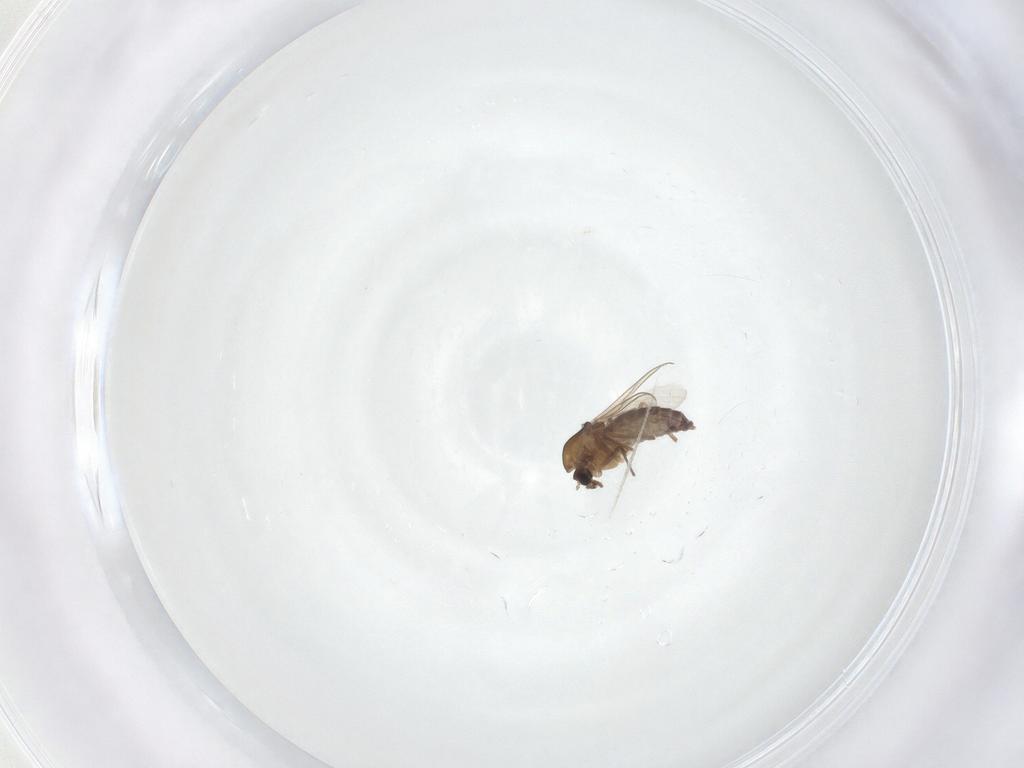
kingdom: Animalia
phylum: Arthropoda
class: Insecta
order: Diptera
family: Chironomidae
